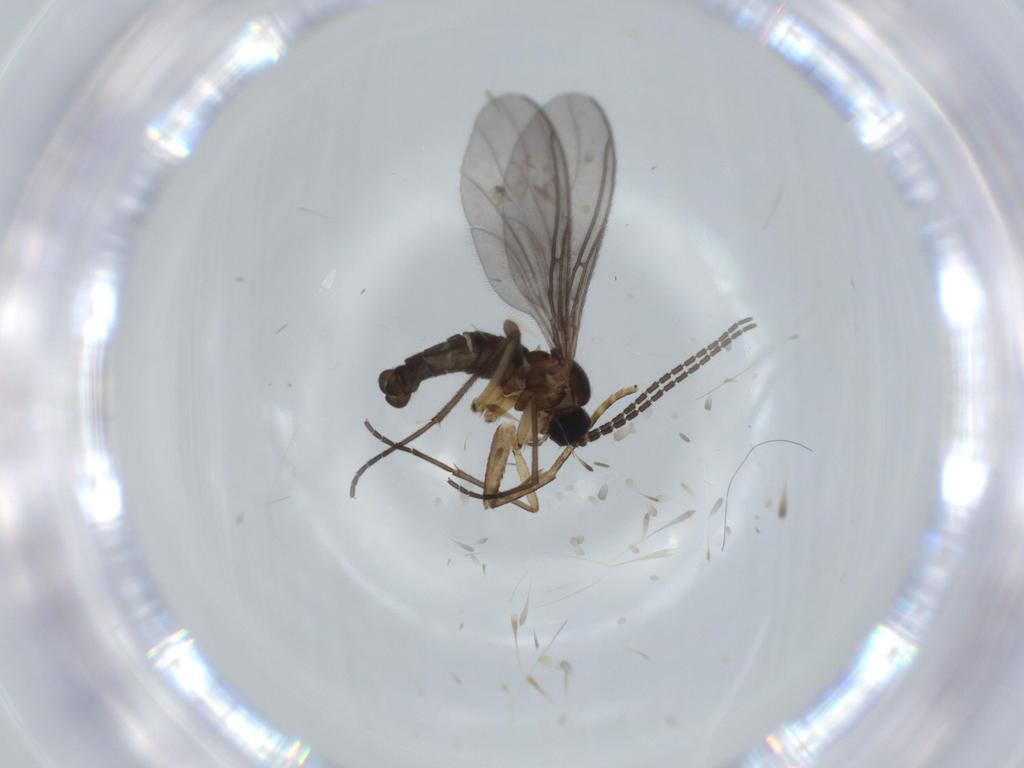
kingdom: Animalia
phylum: Arthropoda
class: Insecta
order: Diptera
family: Sciaridae
